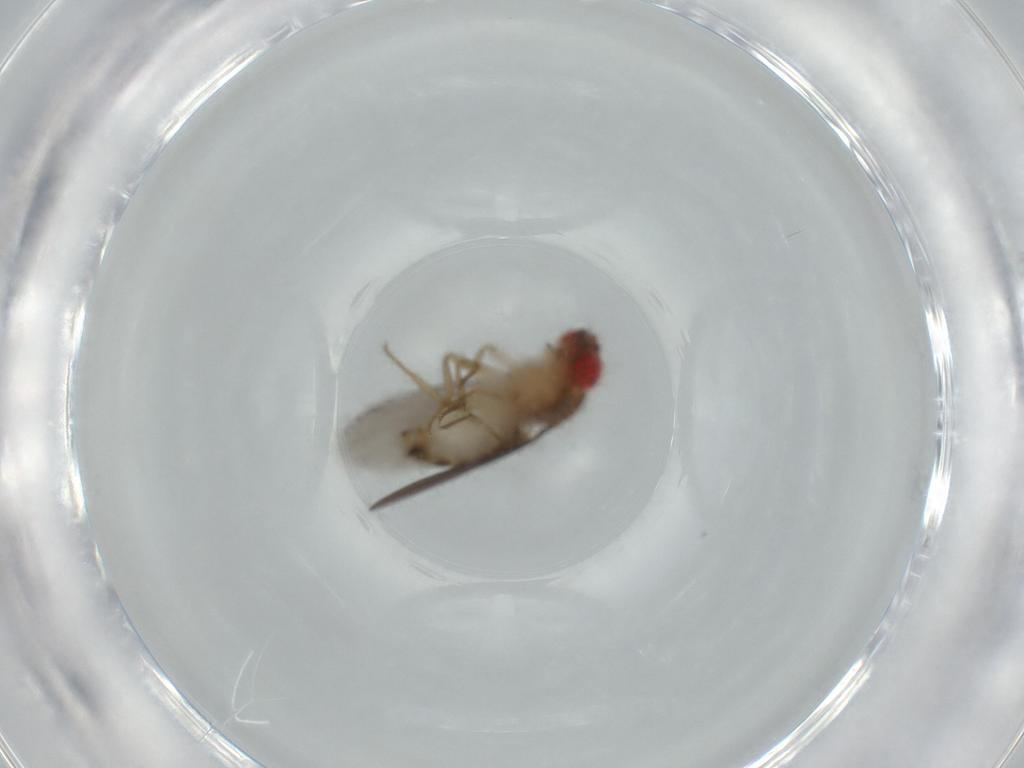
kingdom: Animalia
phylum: Arthropoda
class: Insecta
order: Diptera
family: Drosophilidae
